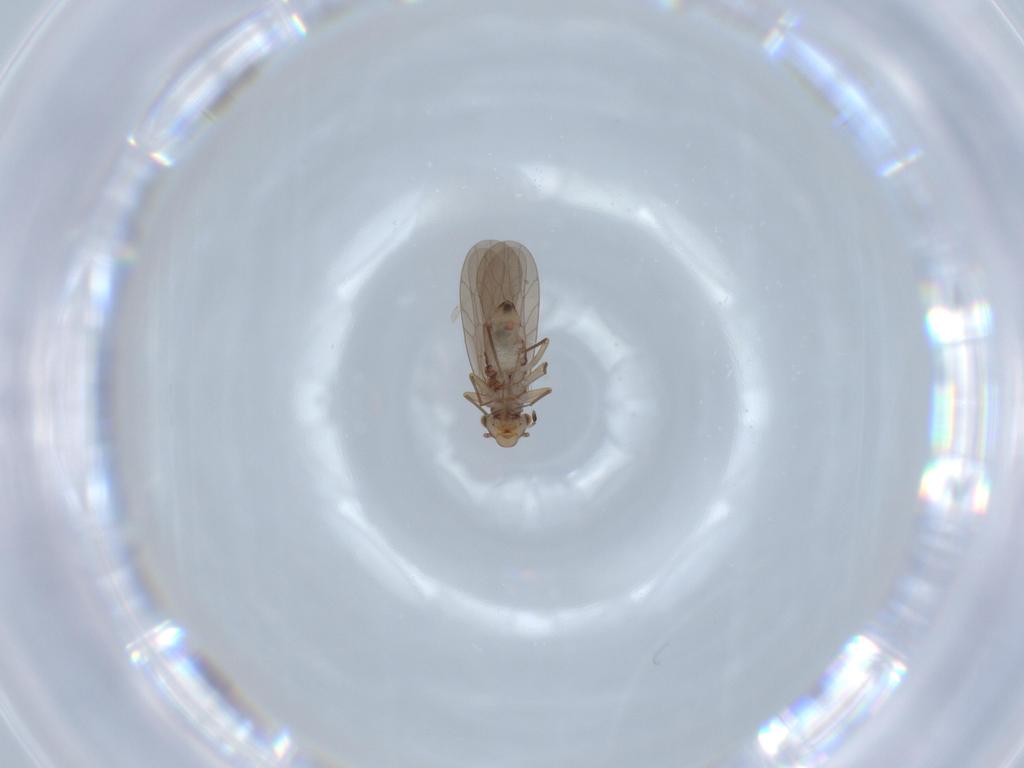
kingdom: Animalia
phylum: Arthropoda
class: Insecta
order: Psocodea
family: Lepidopsocidae
